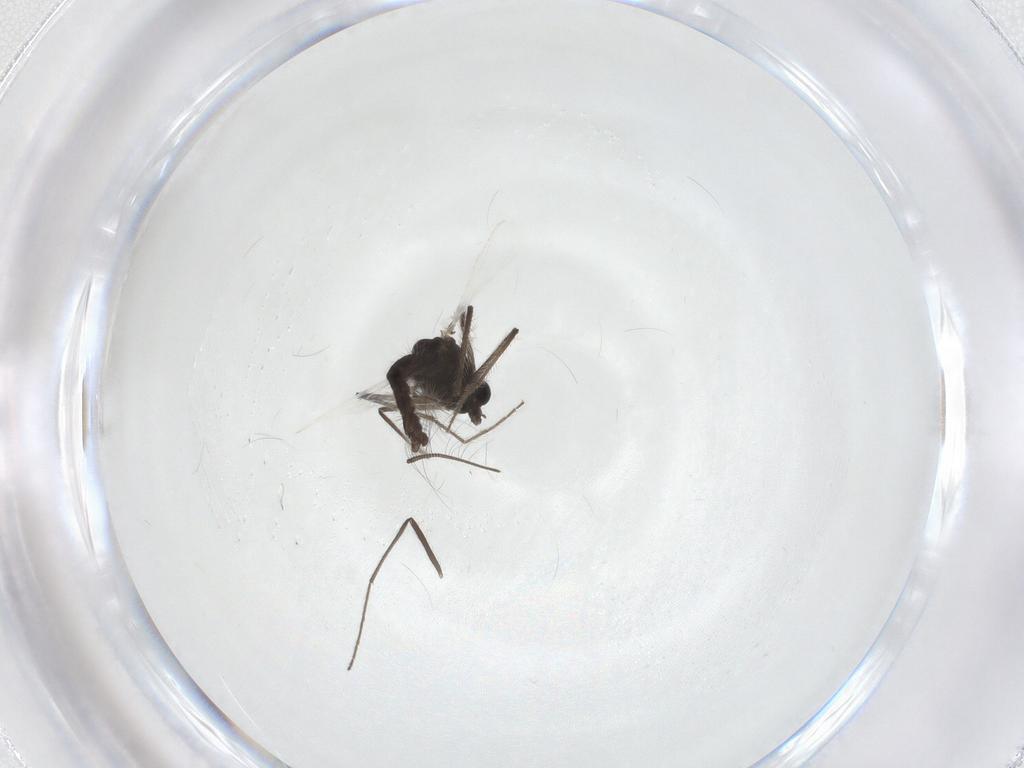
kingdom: Animalia
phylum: Arthropoda
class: Insecta
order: Diptera
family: Chironomidae
